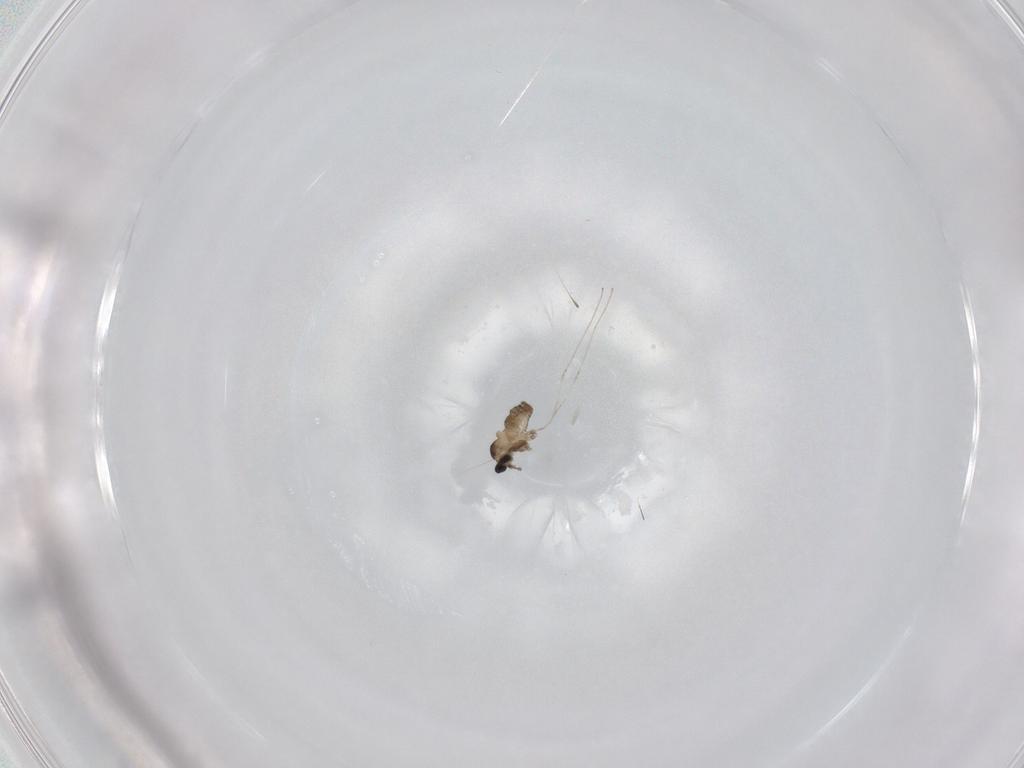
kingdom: Animalia
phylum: Arthropoda
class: Insecta
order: Diptera
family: Cecidomyiidae
